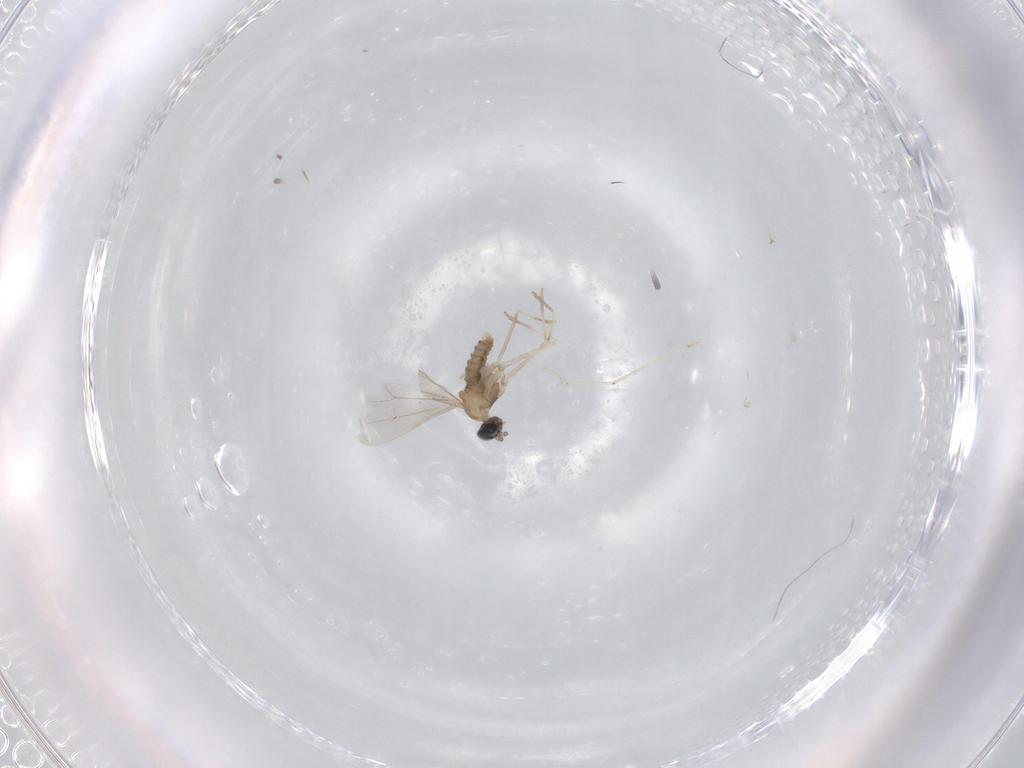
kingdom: Animalia
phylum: Arthropoda
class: Insecta
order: Diptera
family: Cecidomyiidae
